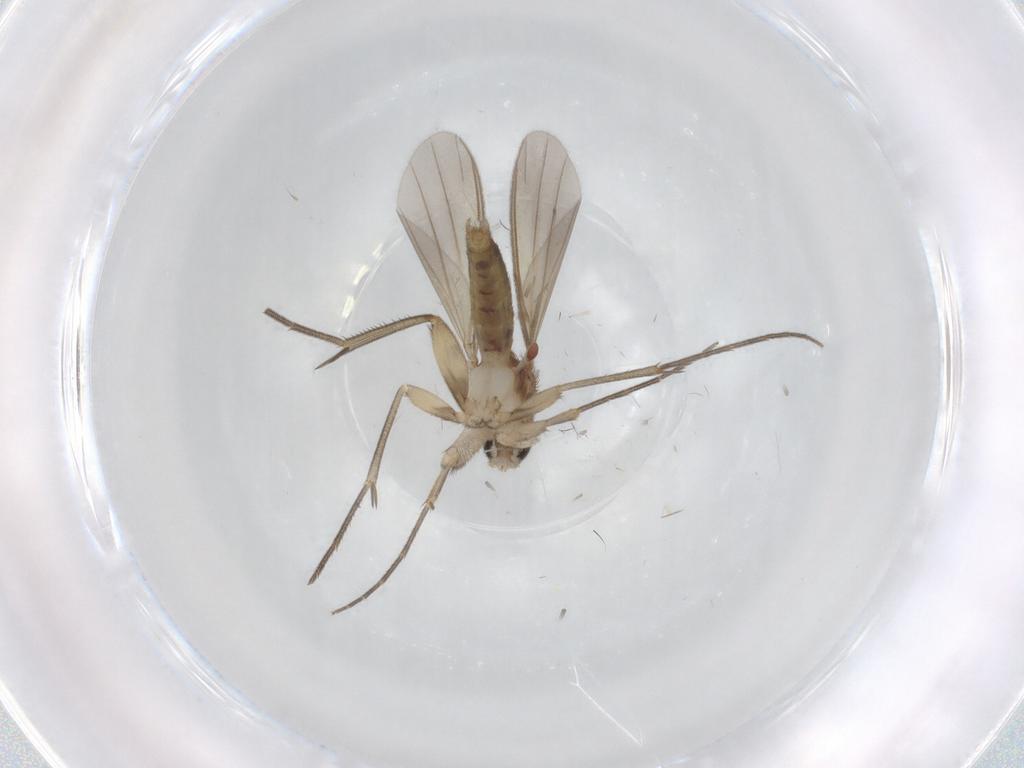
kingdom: Animalia
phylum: Arthropoda
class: Insecta
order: Diptera
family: Mycetophilidae
